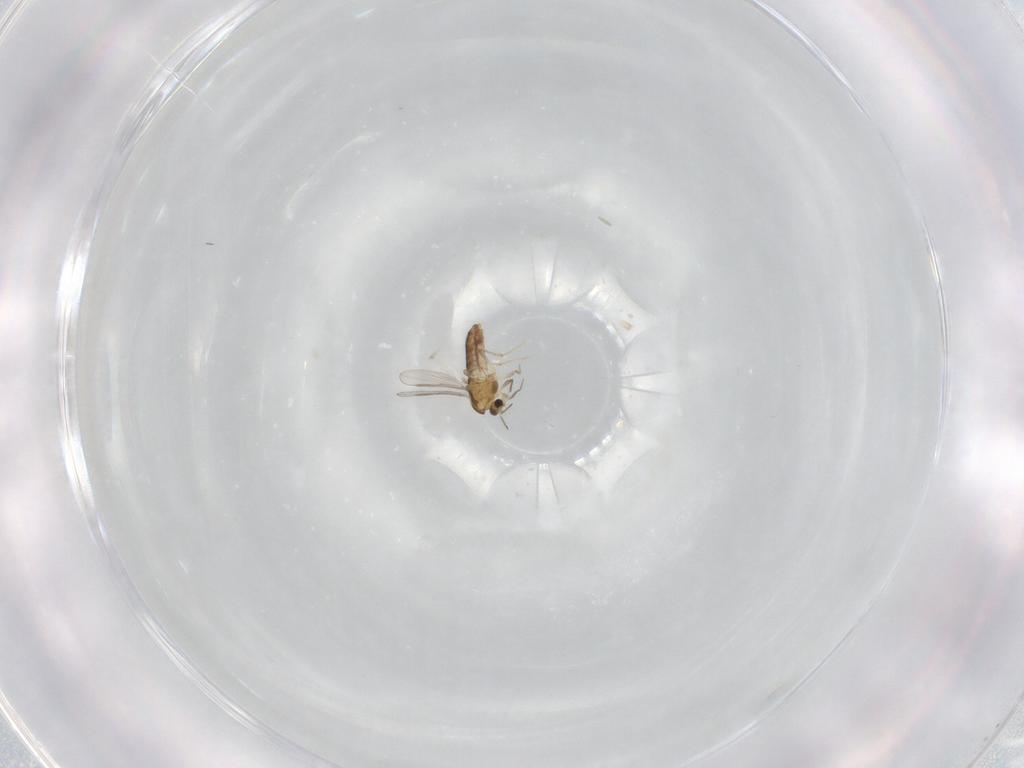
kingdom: Animalia
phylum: Arthropoda
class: Insecta
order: Diptera
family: Chironomidae
